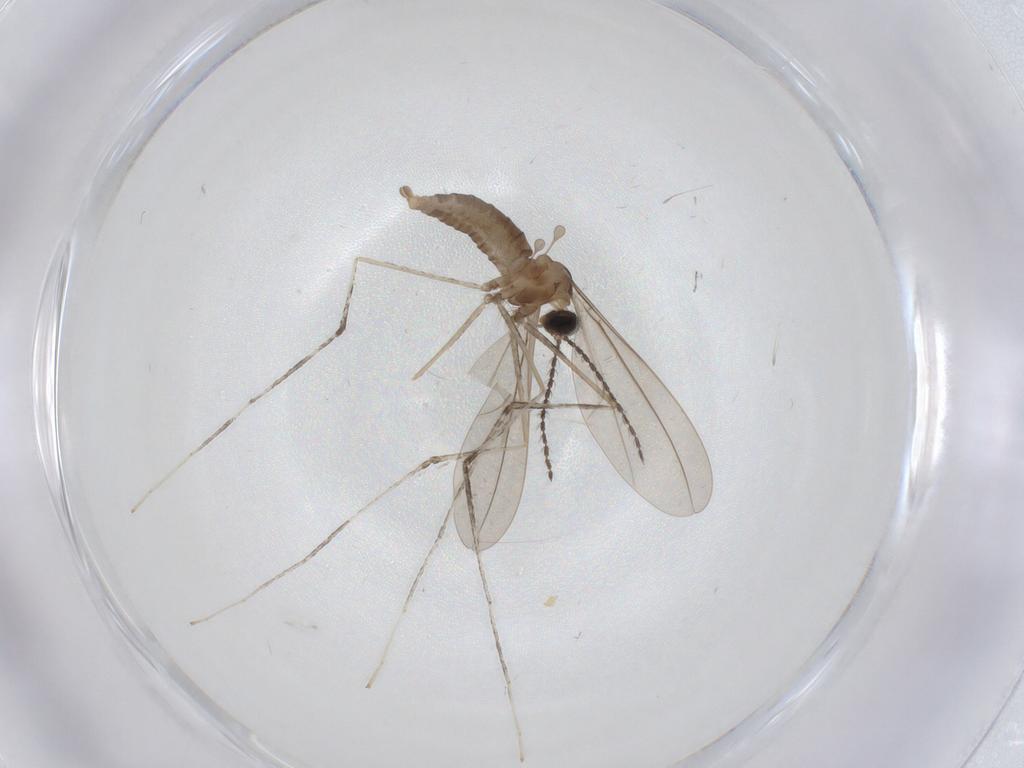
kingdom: Animalia
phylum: Arthropoda
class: Insecta
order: Diptera
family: Cecidomyiidae
